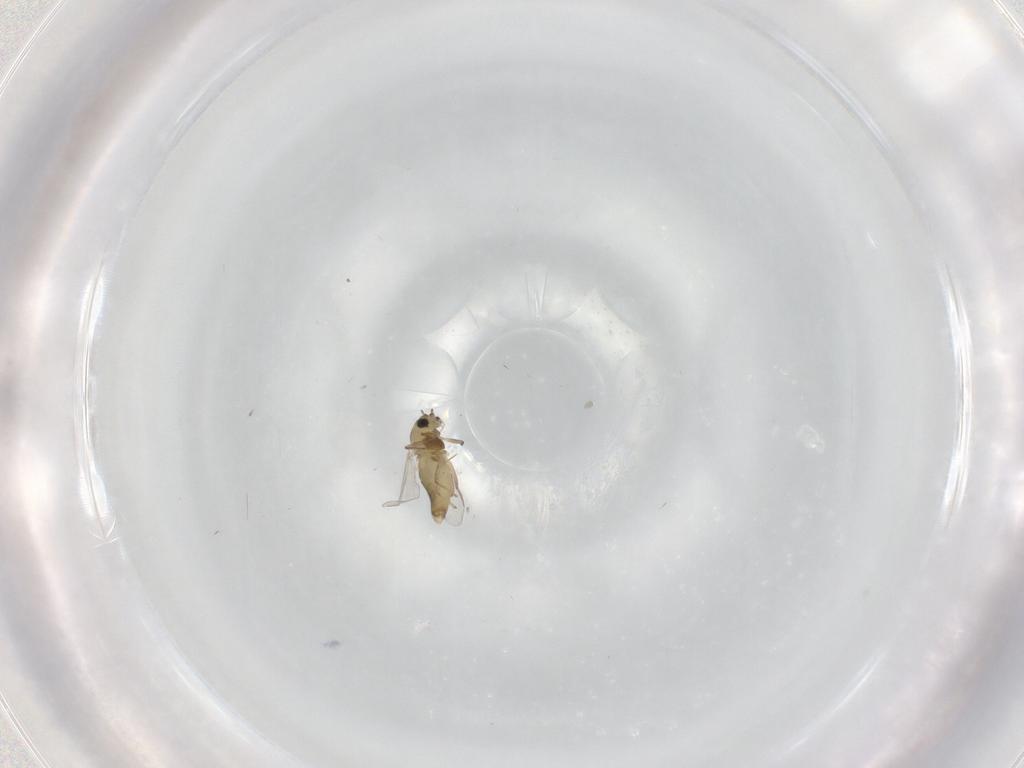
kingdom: Animalia
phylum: Arthropoda
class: Insecta
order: Diptera
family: Chironomidae
